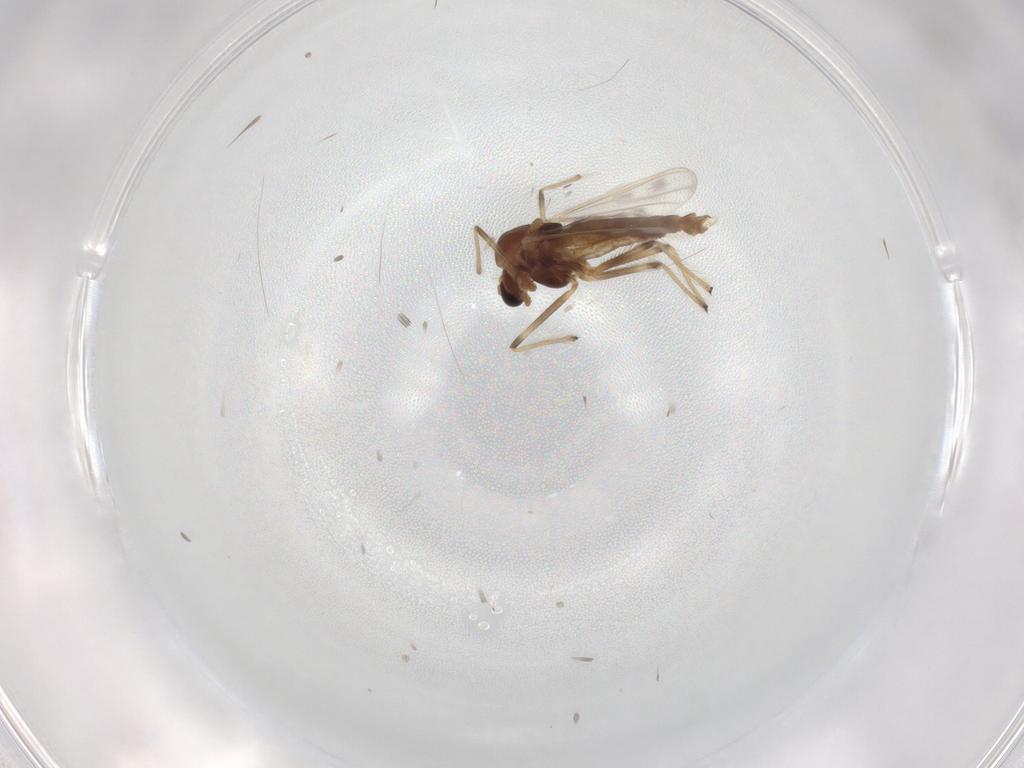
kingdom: Animalia
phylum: Arthropoda
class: Insecta
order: Diptera
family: Chironomidae
